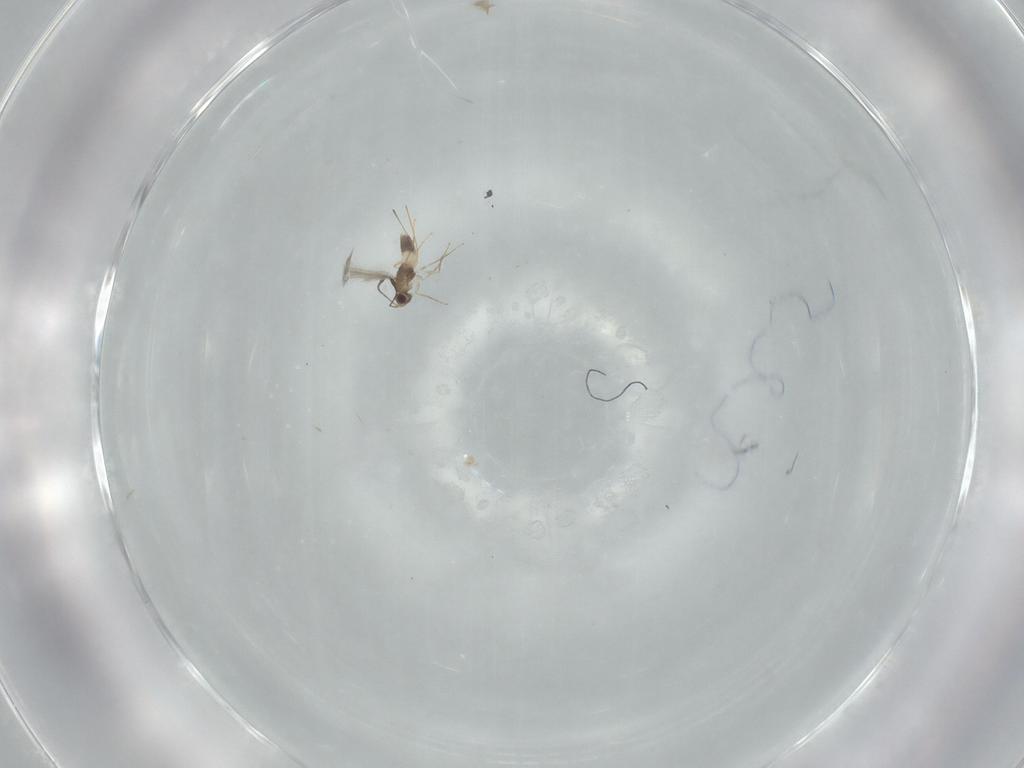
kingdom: Animalia
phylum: Arthropoda
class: Insecta
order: Hymenoptera
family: Mymaridae
